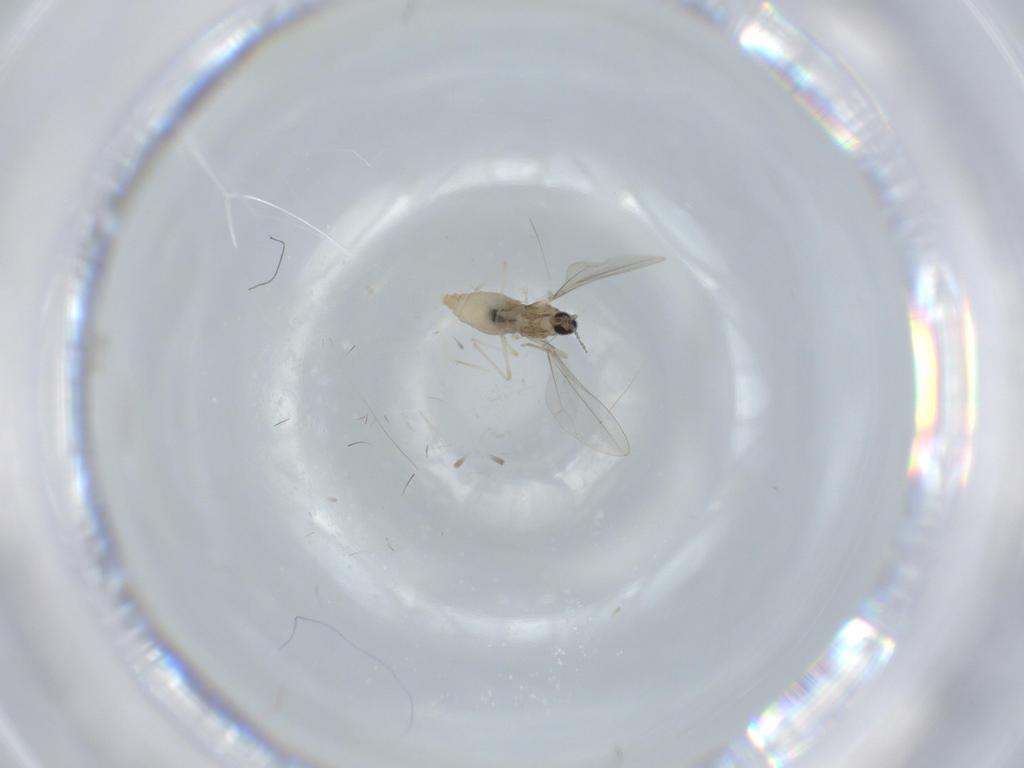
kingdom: Animalia
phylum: Arthropoda
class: Insecta
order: Diptera
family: Cecidomyiidae
